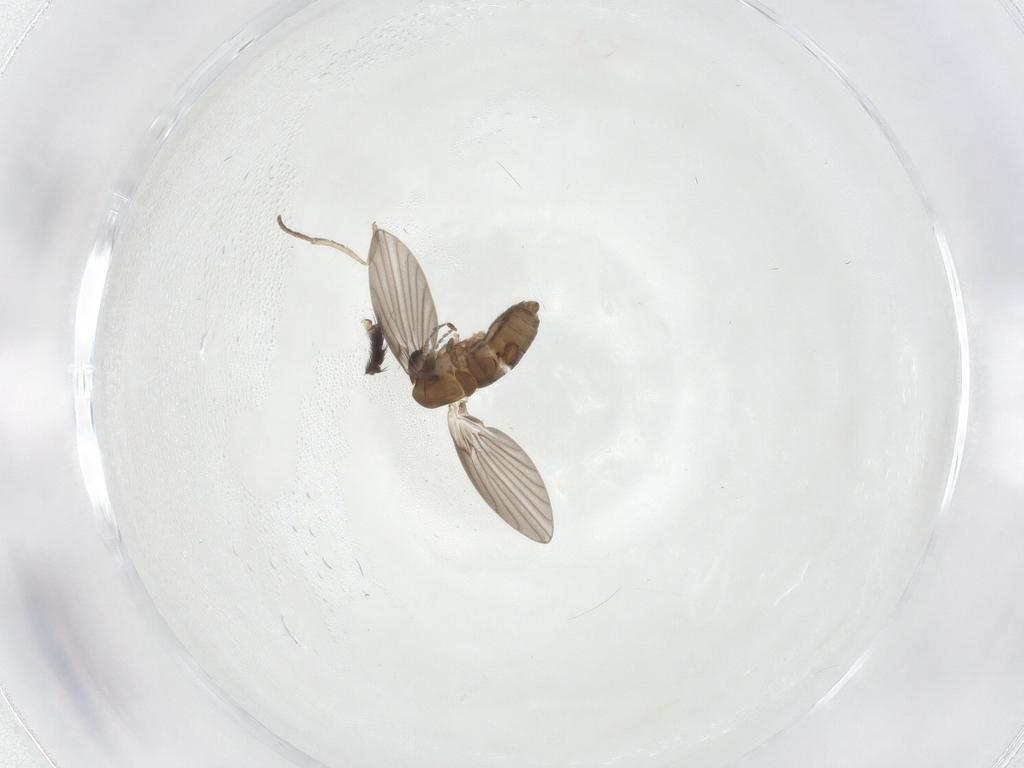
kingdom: Animalia
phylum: Arthropoda
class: Insecta
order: Diptera
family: Psychodidae
